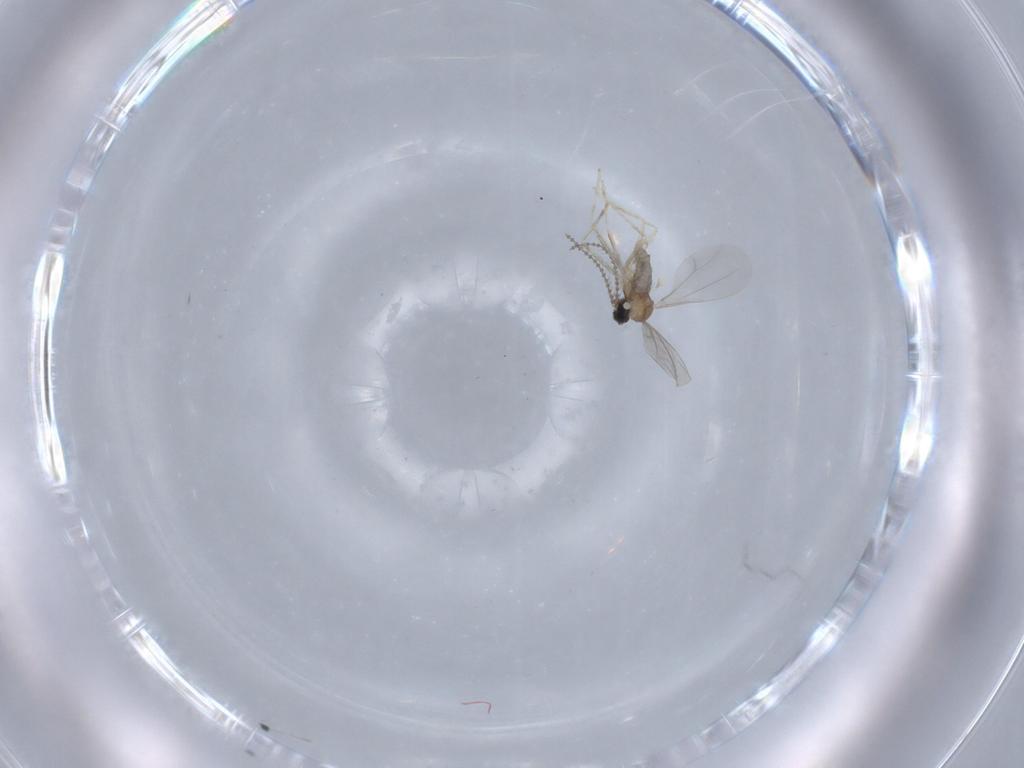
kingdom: Animalia
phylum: Arthropoda
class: Insecta
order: Diptera
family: Cecidomyiidae
